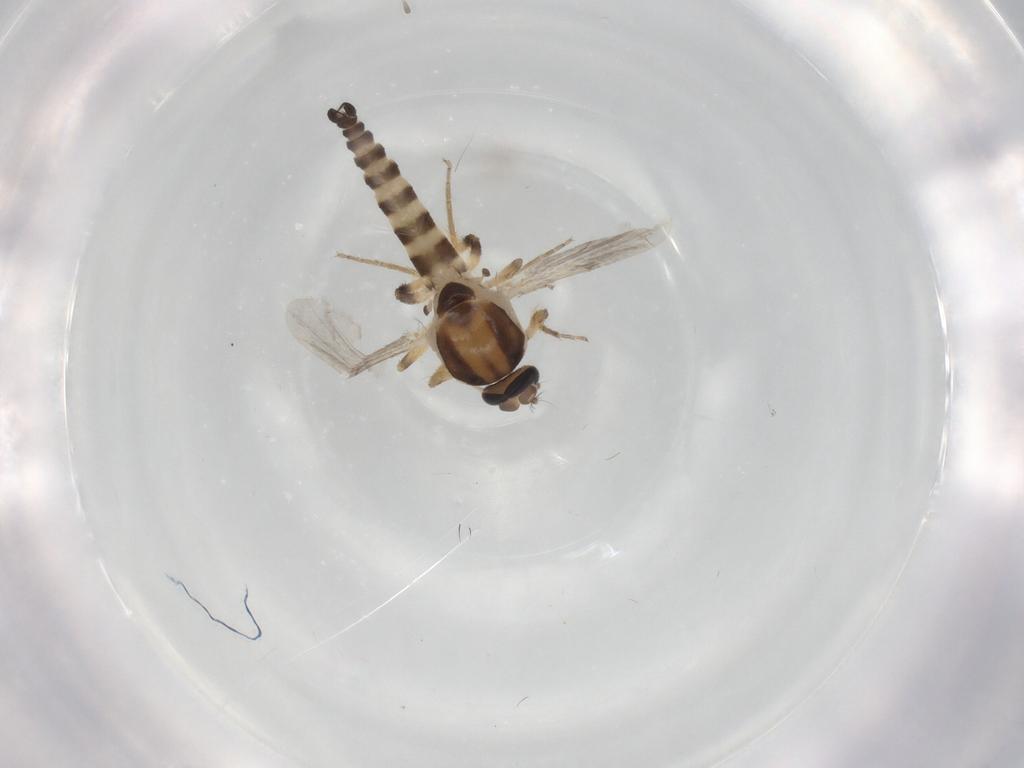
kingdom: Animalia
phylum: Arthropoda
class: Insecta
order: Diptera
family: Ceratopogonidae
